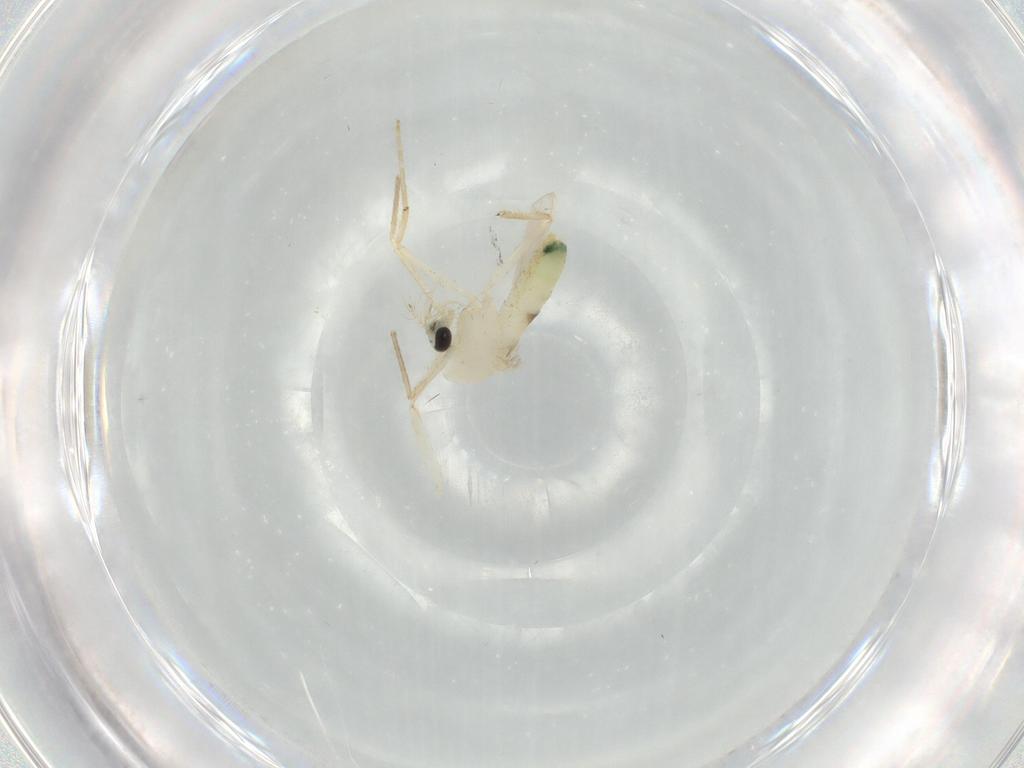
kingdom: Animalia
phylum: Arthropoda
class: Insecta
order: Diptera
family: Chironomidae
